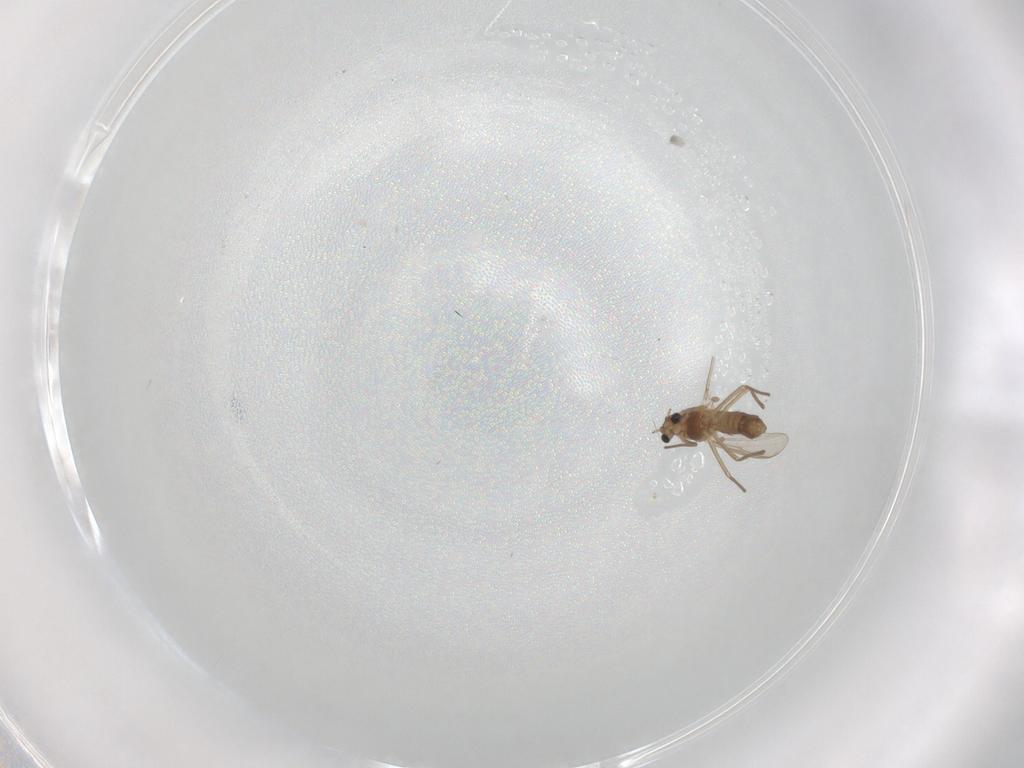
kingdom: Animalia
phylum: Arthropoda
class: Insecta
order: Diptera
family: Chironomidae
